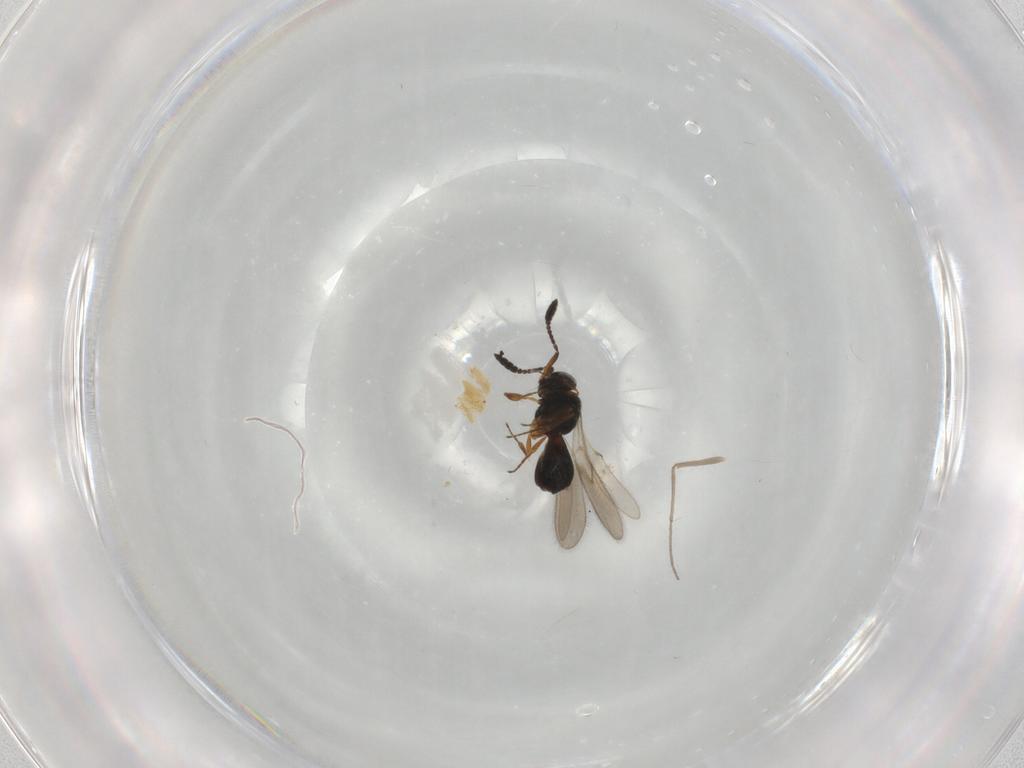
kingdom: Animalia
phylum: Arthropoda
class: Insecta
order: Hymenoptera
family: Scelionidae
